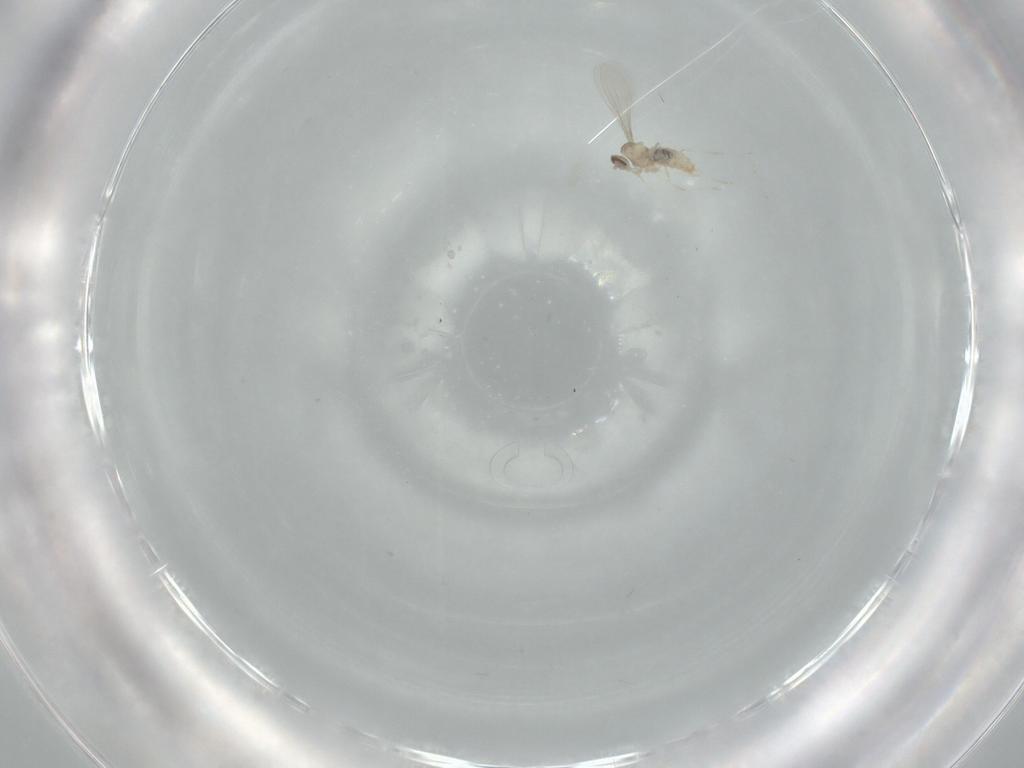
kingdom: Animalia
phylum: Arthropoda
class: Insecta
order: Diptera
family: Cecidomyiidae
